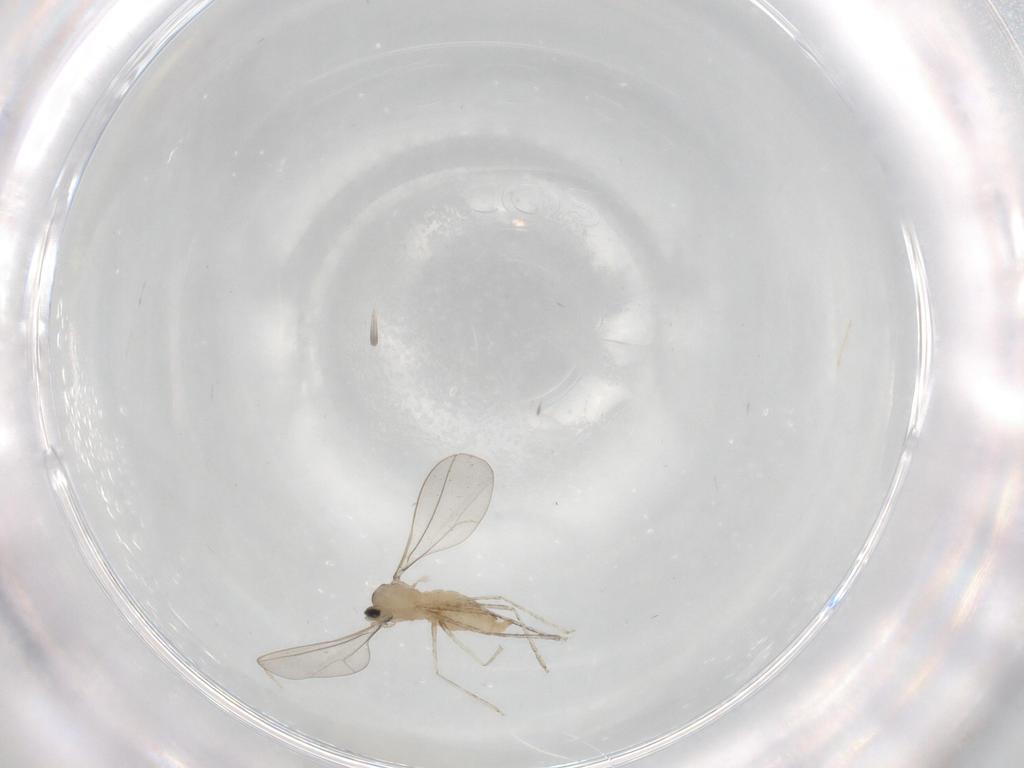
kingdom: Animalia
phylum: Arthropoda
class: Insecta
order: Diptera
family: Cecidomyiidae
